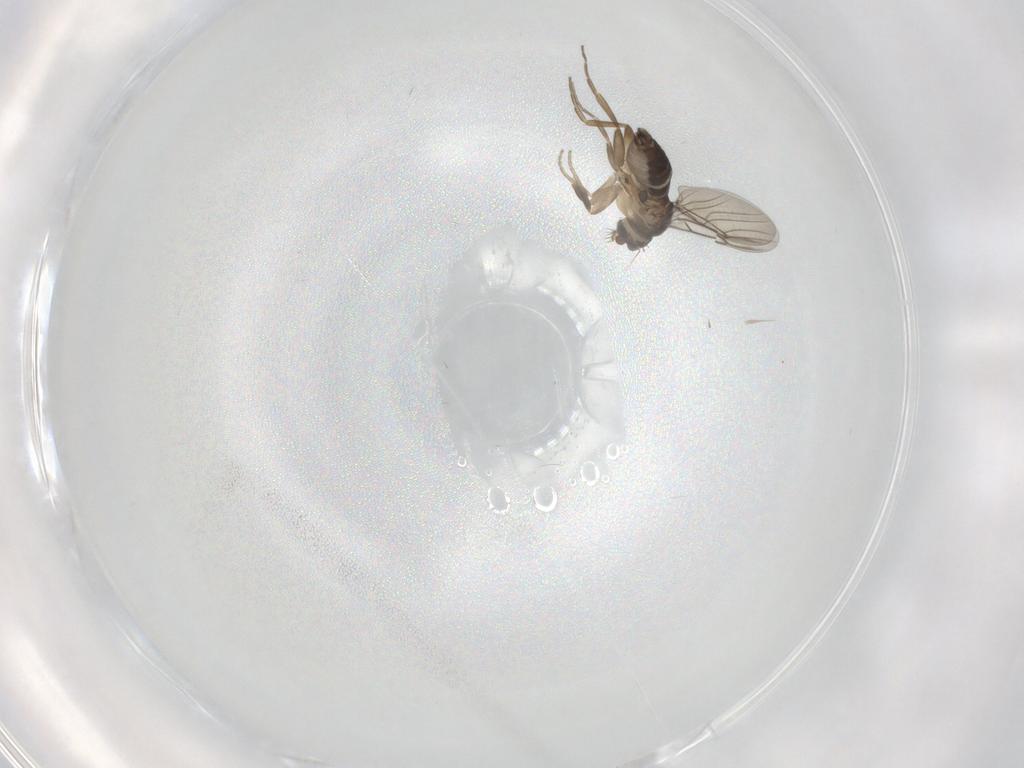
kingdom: Animalia
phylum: Arthropoda
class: Insecta
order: Diptera
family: Phoridae
